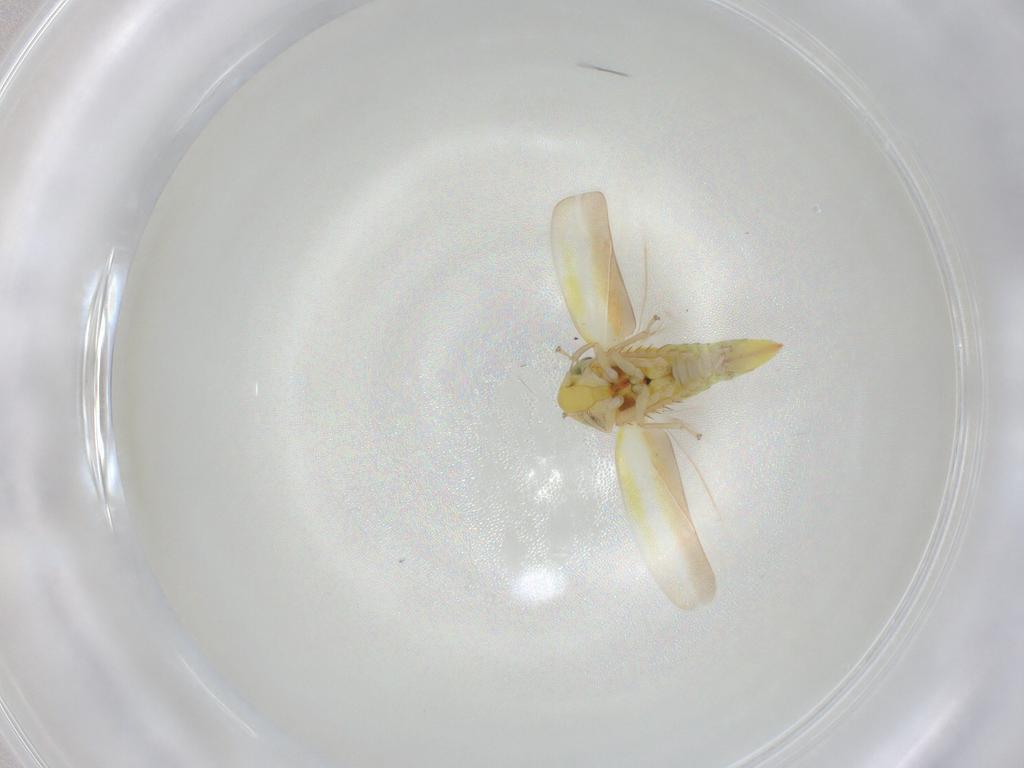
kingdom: Animalia
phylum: Arthropoda
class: Insecta
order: Hemiptera
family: Cicadellidae
